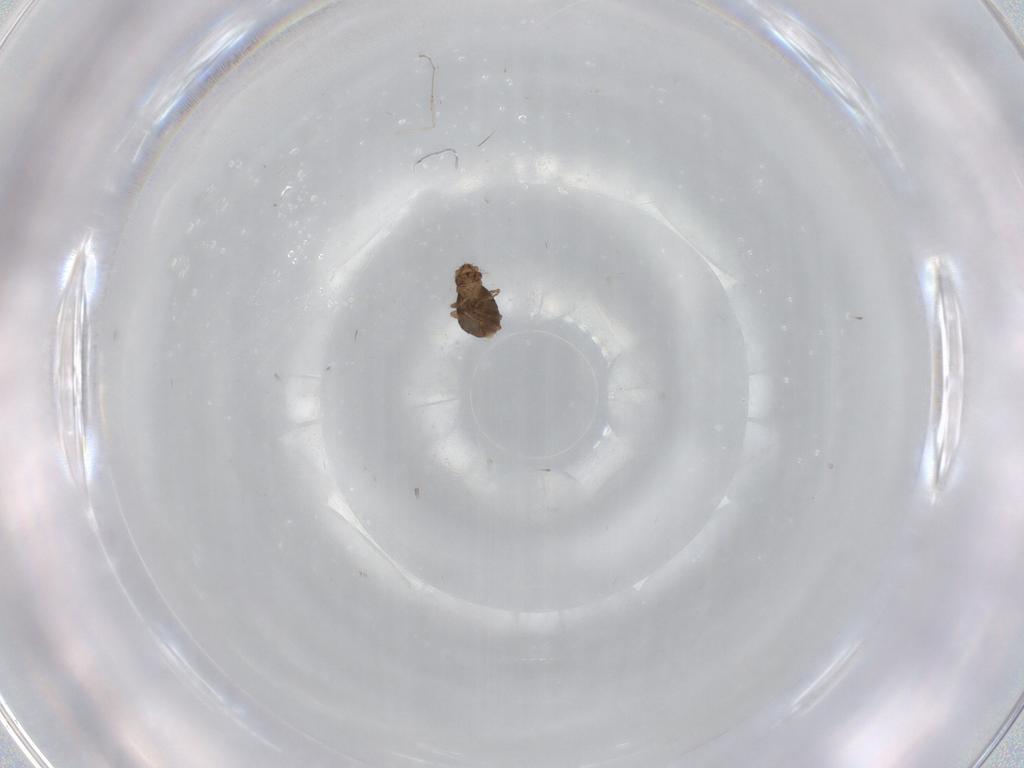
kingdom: Animalia
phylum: Arthropoda
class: Insecta
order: Diptera
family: Cecidomyiidae
